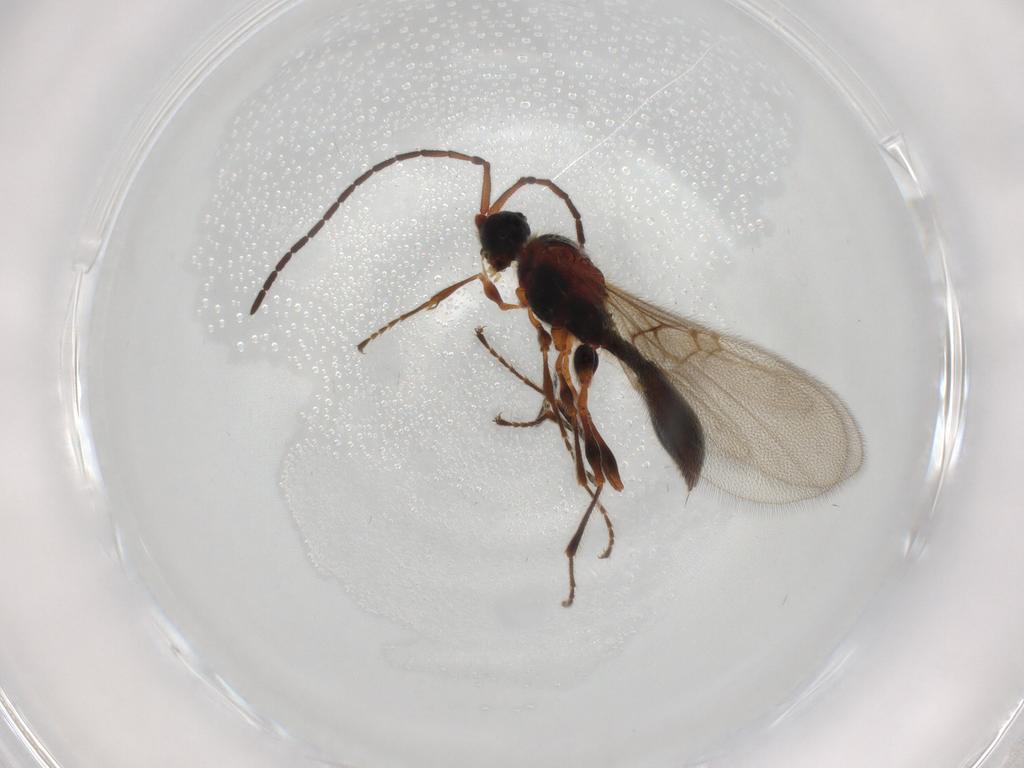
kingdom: Animalia
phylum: Arthropoda
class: Insecta
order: Hymenoptera
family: Diapriidae
